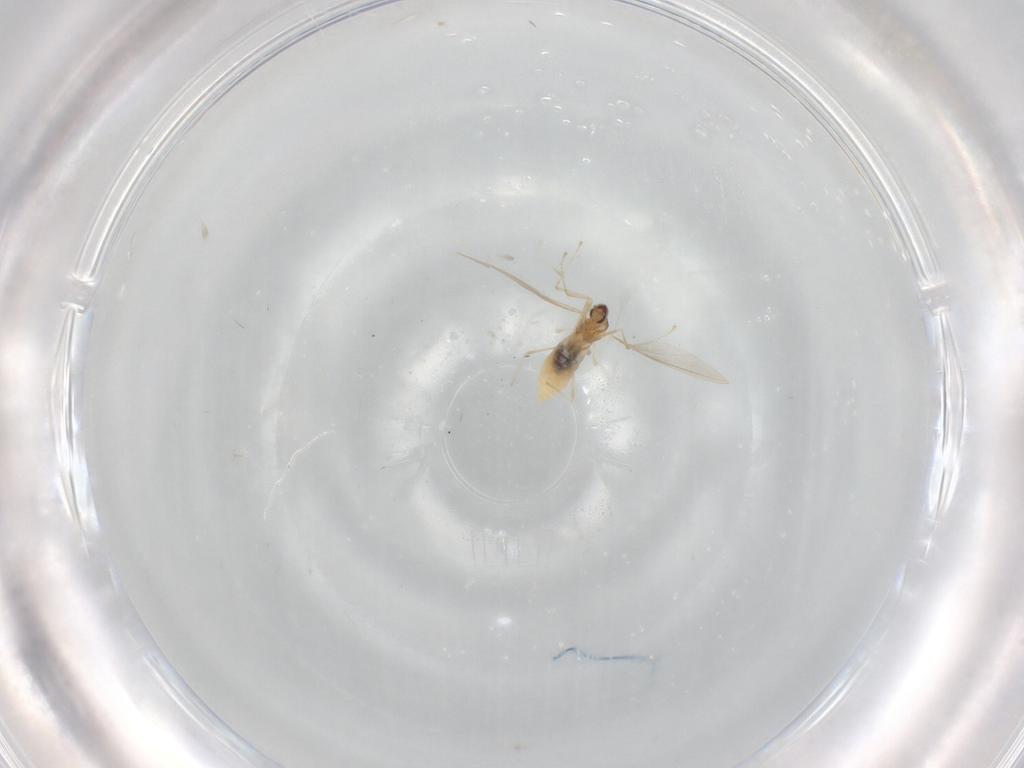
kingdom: Animalia
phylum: Arthropoda
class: Insecta
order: Diptera
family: Cecidomyiidae
